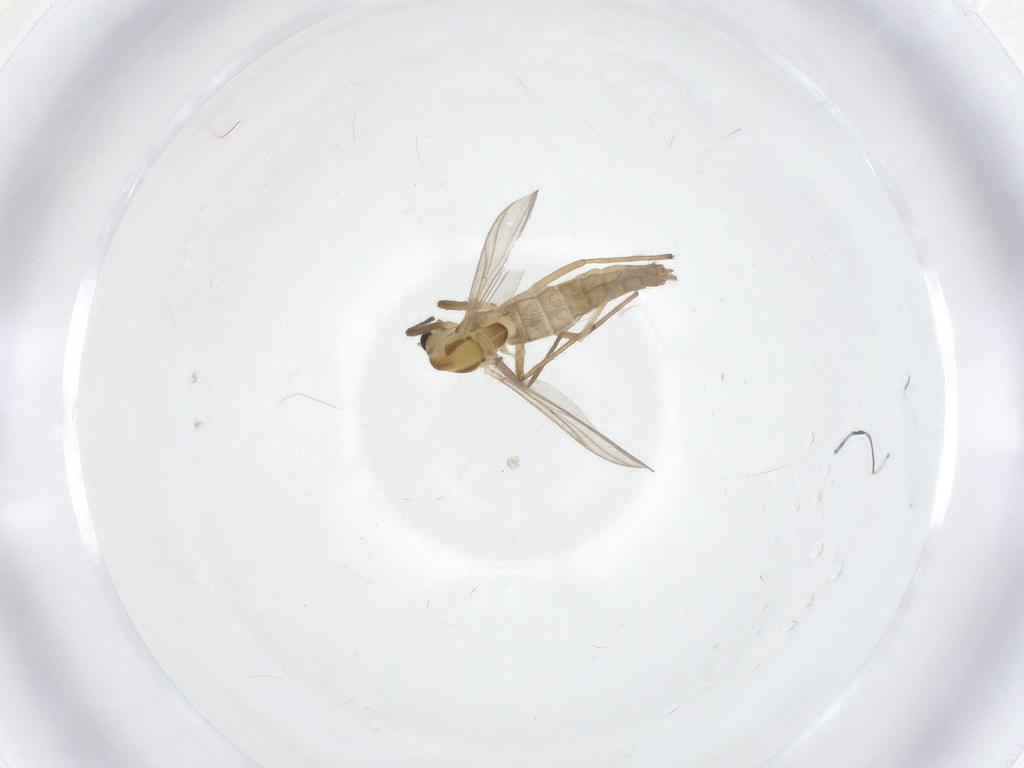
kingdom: Animalia
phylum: Arthropoda
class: Insecta
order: Diptera
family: Chironomidae
